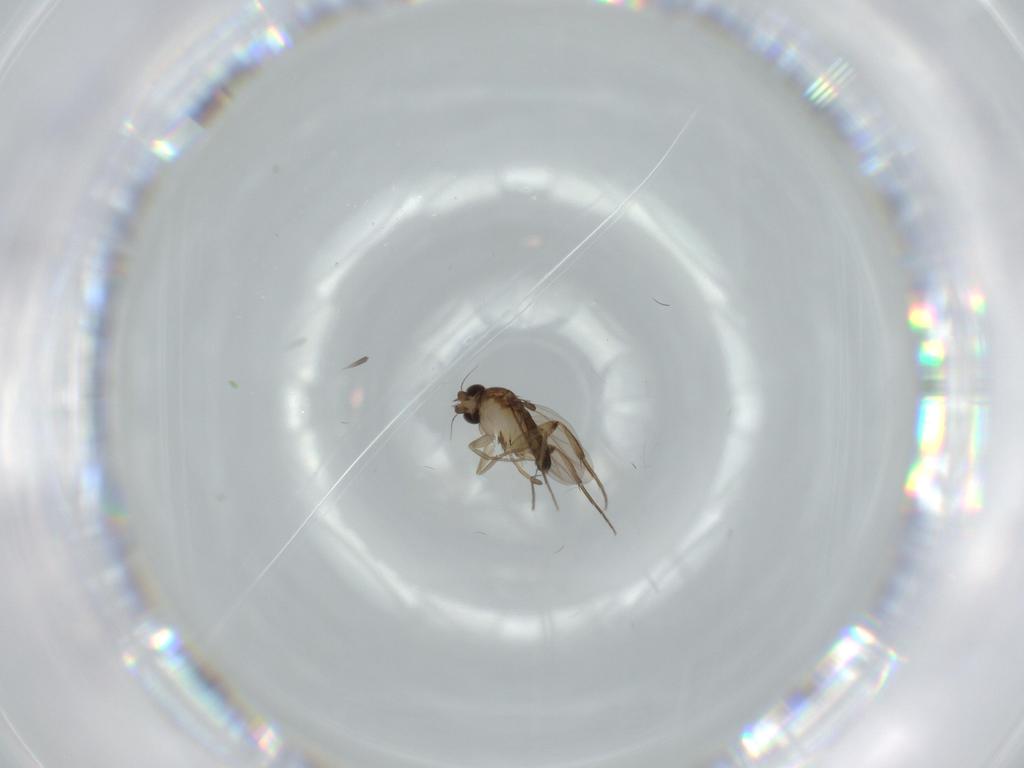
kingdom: Animalia
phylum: Arthropoda
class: Insecta
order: Diptera
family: Phoridae
